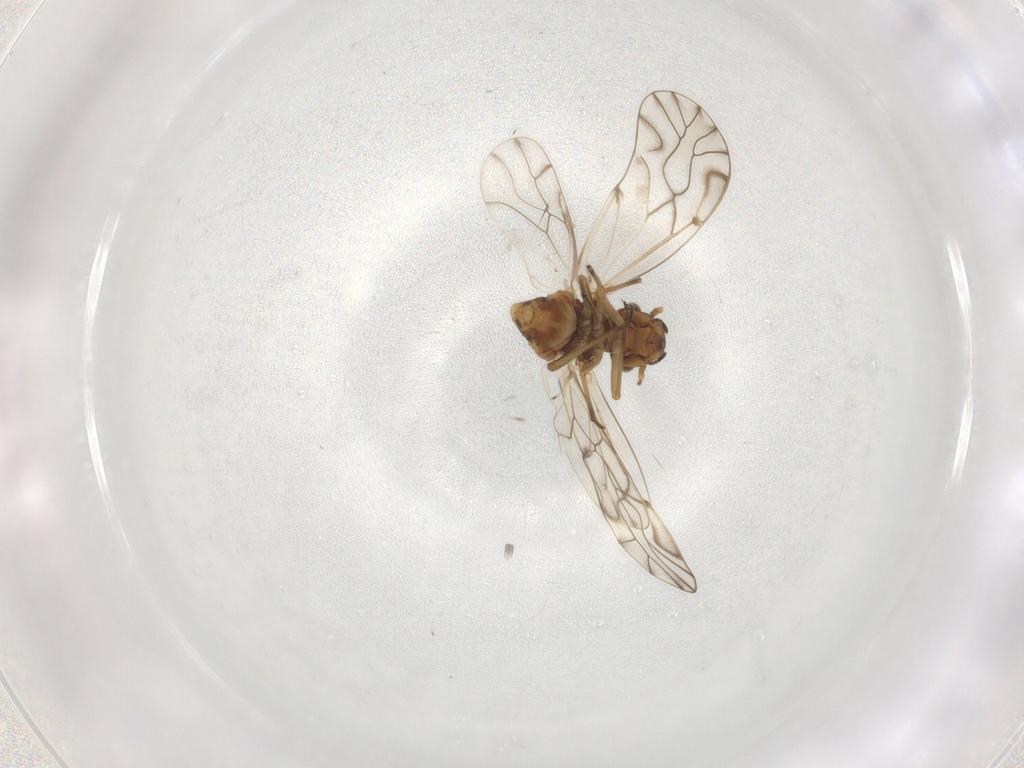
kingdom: Animalia
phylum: Arthropoda
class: Insecta
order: Psocodea
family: Lachesillidae
